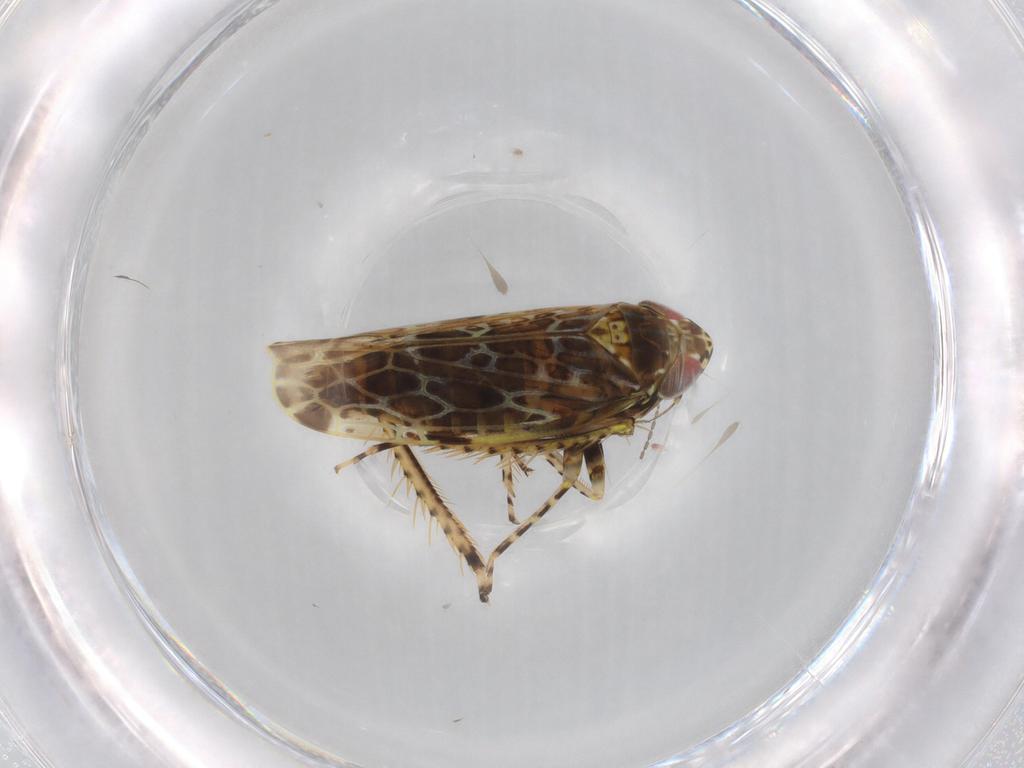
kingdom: Animalia
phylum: Arthropoda
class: Insecta
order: Hemiptera
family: Cicadellidae
